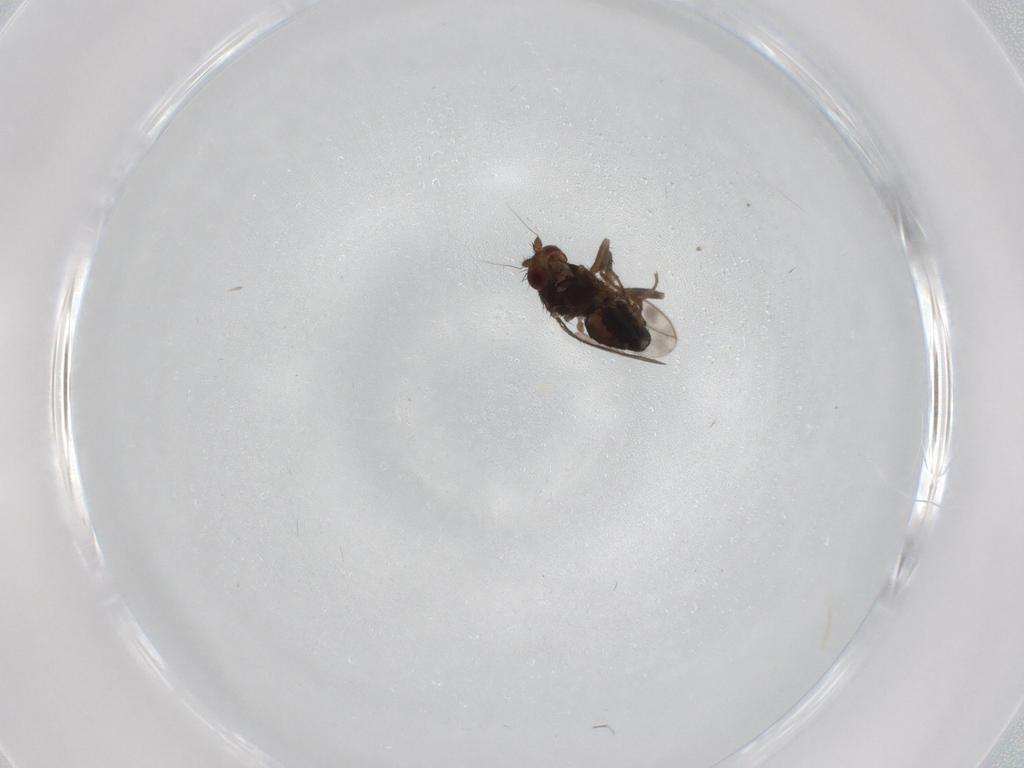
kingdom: Animalia
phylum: Arthropoda
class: Insecta
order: Diptera
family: Sphaeroceridae
